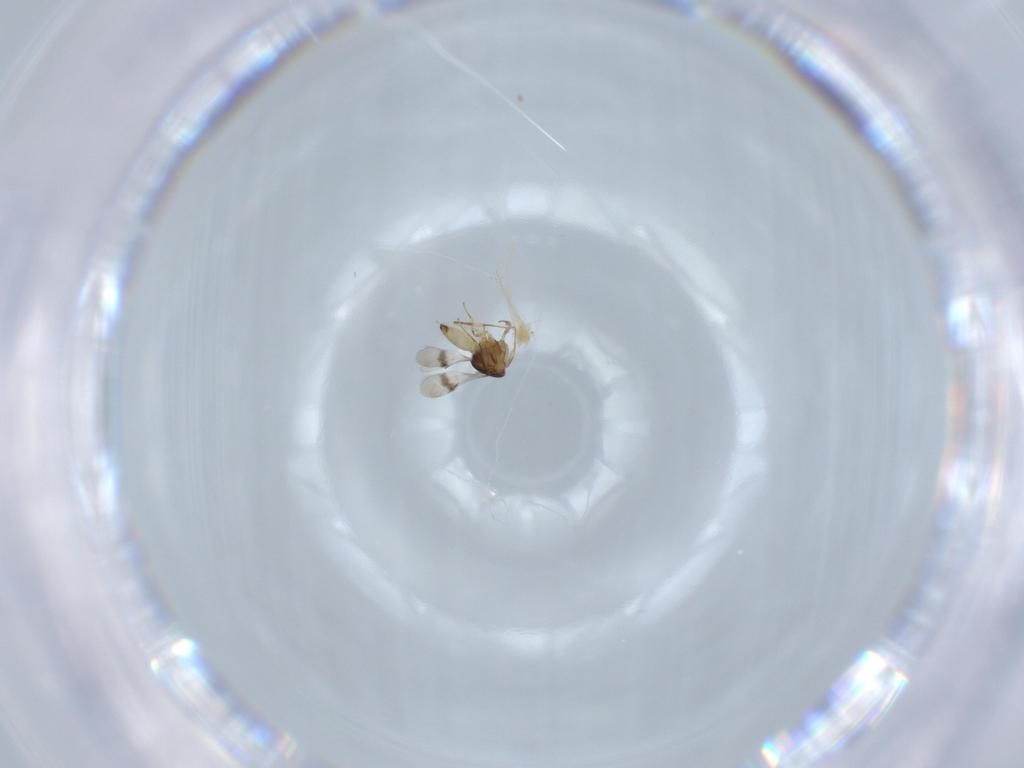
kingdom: Animalia
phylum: Arthropoda
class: Arachnida
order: Araneae
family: Pholcidae
